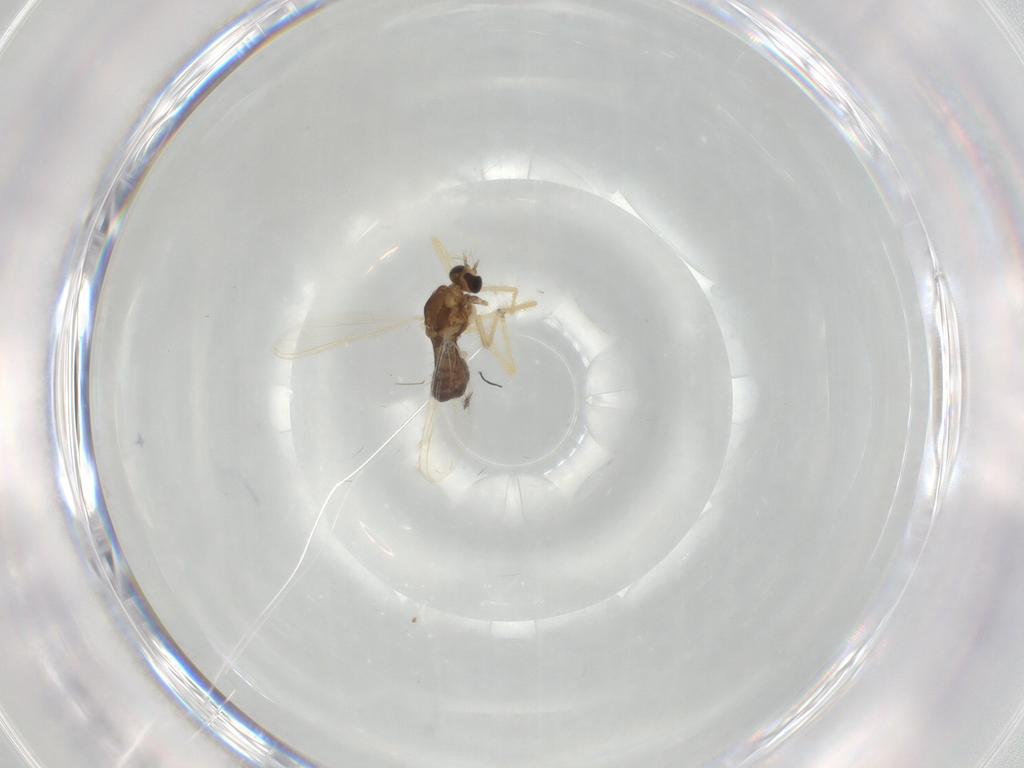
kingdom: Animalia
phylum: Arthropoda
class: Insecta
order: Diptera
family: Chironomidae
